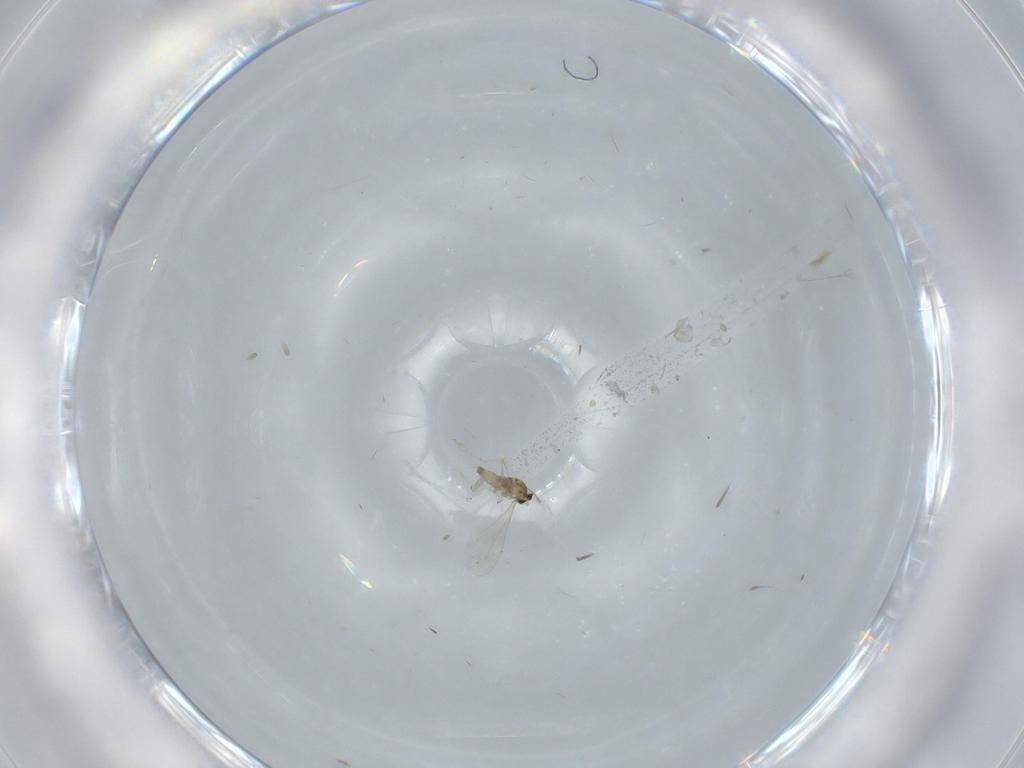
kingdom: Animalia
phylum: Arthropoda
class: Insecta
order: Diptera
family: Cecidomyiidae
